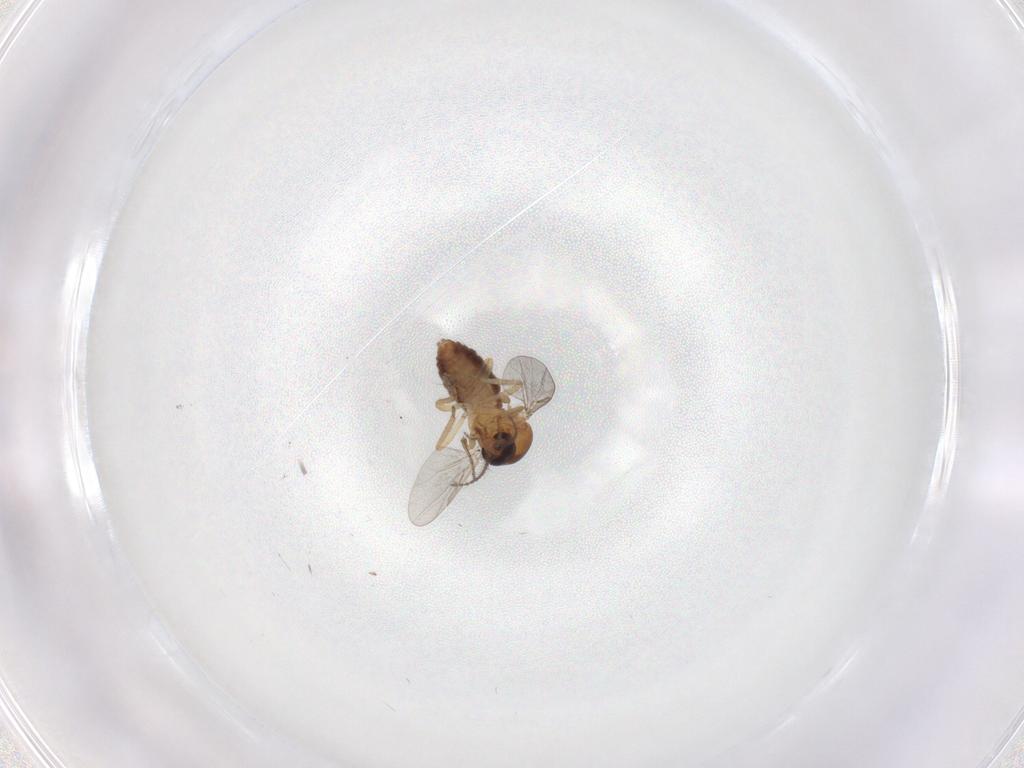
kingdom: Animalia
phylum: Arthropoda
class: Insecta
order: Diptera
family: Ceratopogonidae
